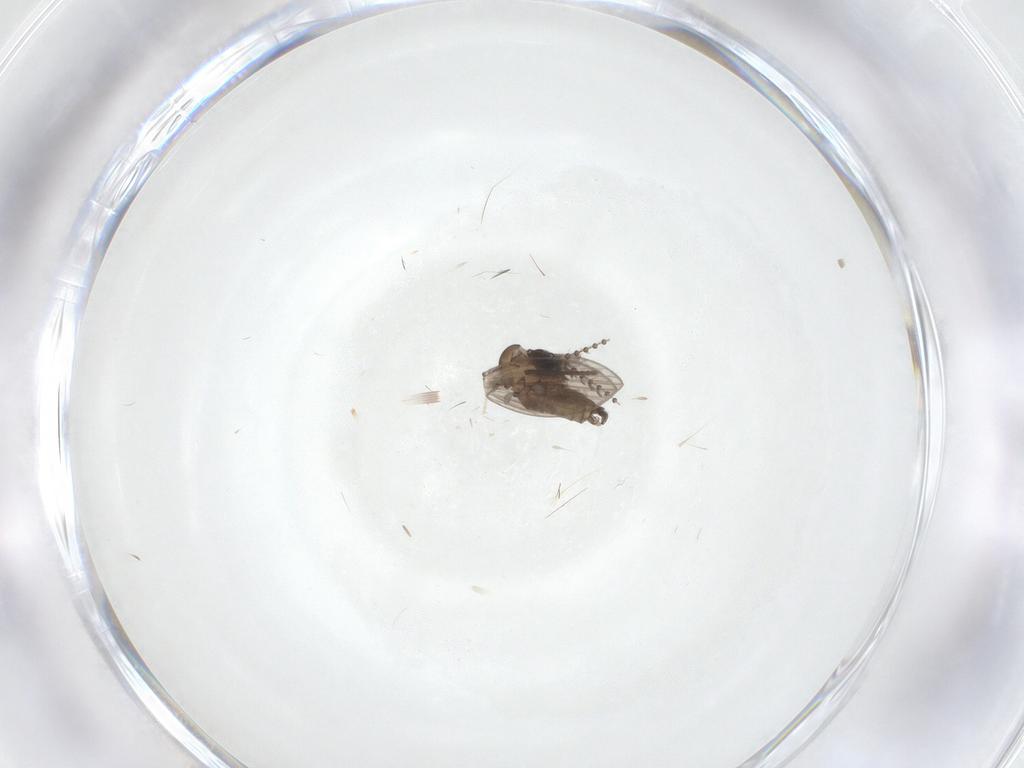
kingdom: Animalia
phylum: Arthropoda
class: Insecta
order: Diptera
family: Psychodidae
